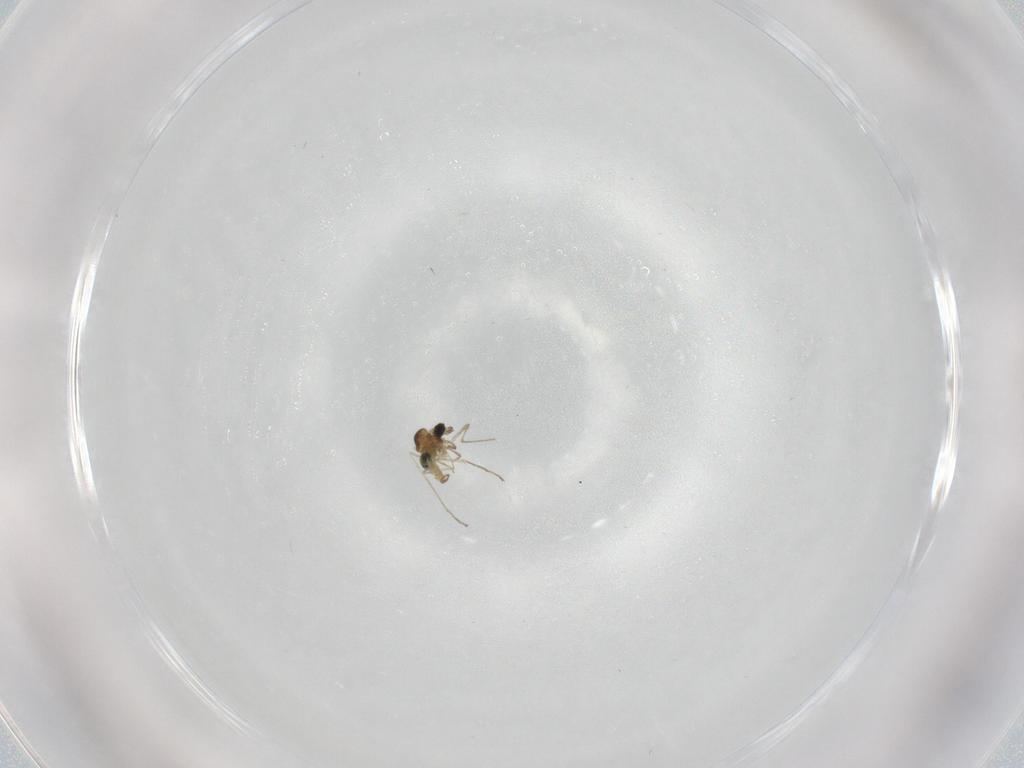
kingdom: Animalia
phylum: Arthropoda
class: Insecta
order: Diptera
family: Cecidomyiidae
